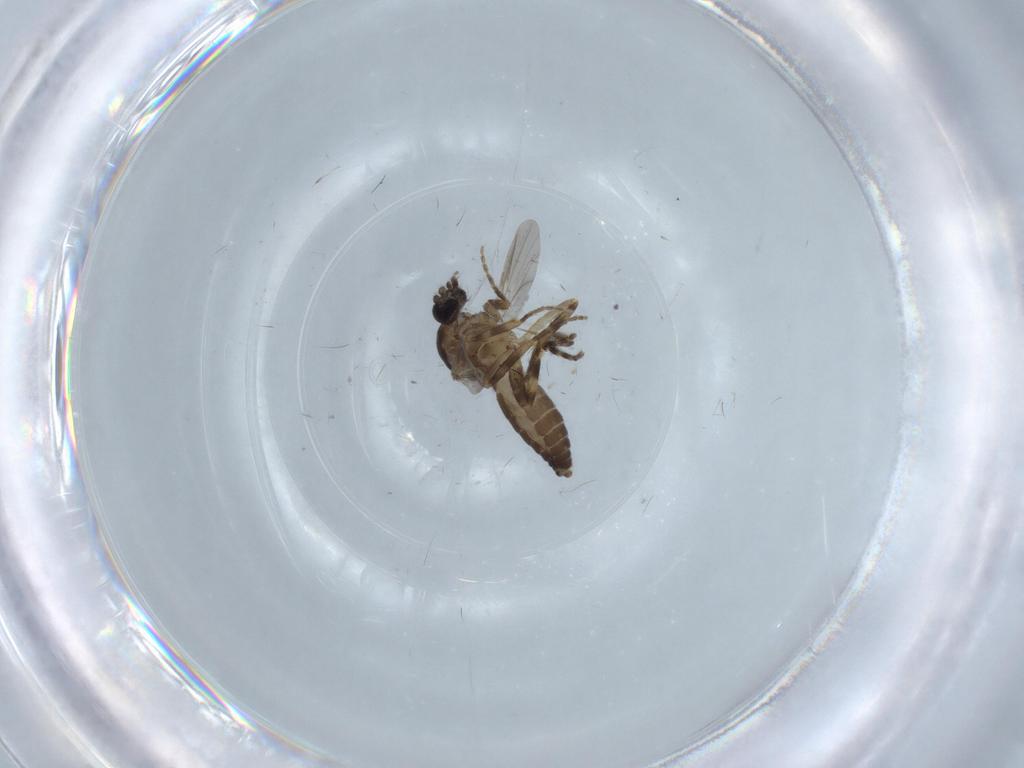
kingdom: Animalia
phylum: Arthropoda
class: Insecta
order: Diptera
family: Ceratopogonidae
